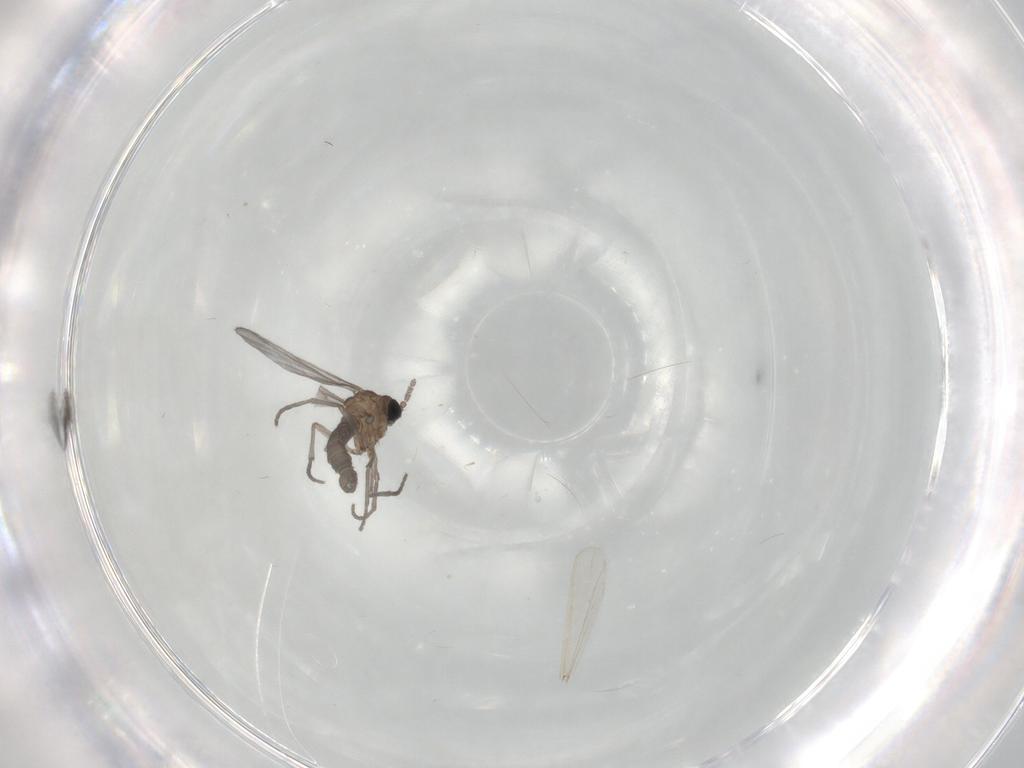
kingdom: Animalia
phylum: Arthropoda
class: Insecta
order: Diptera
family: Sciaridae
